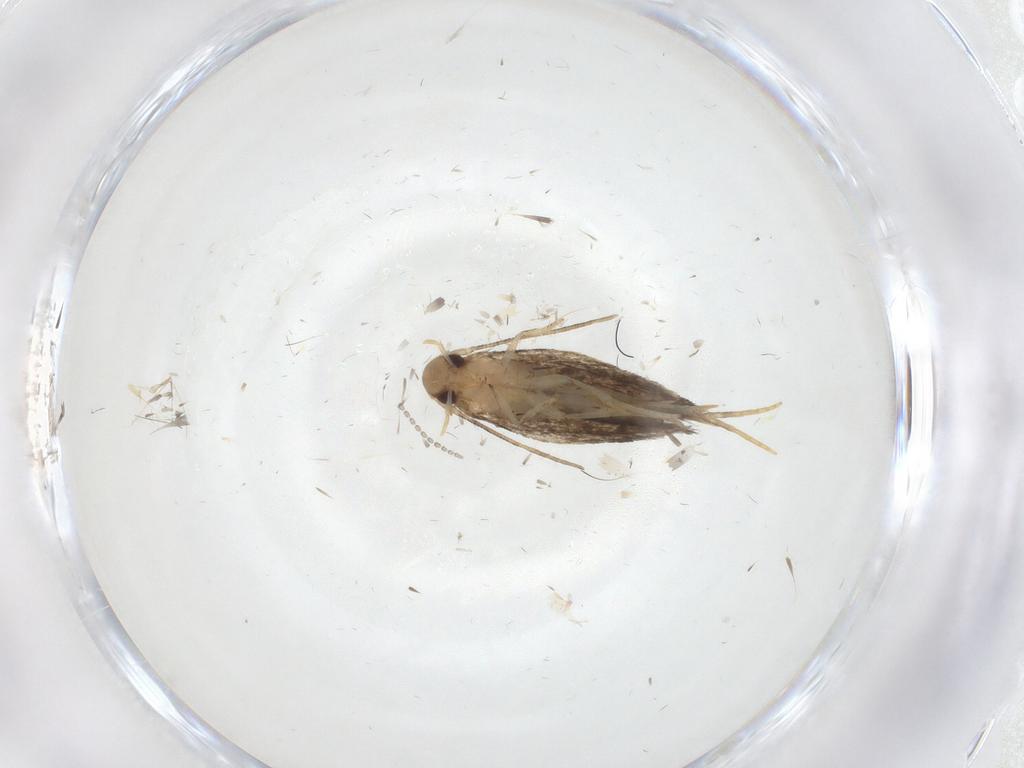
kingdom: Animalia
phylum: Arthropoda
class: Insecta
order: Lepidoptera
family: Gelechiidae
